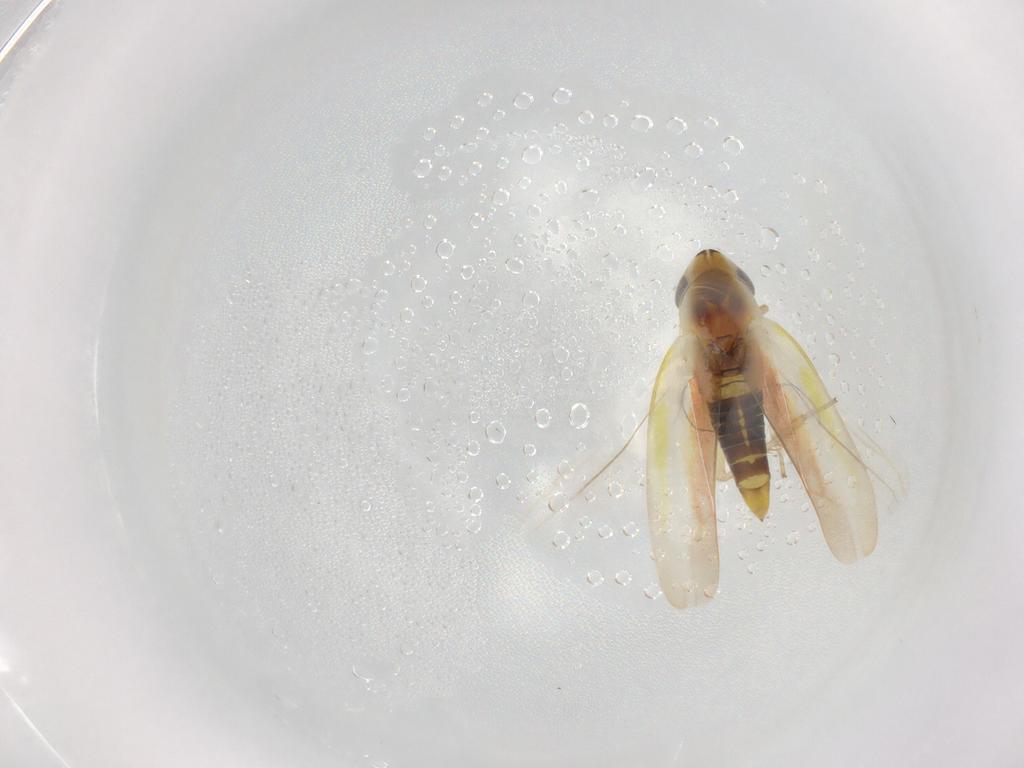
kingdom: Animalia
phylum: Arthropoda
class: Insecta
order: Hemiptera
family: Cicadellidae
